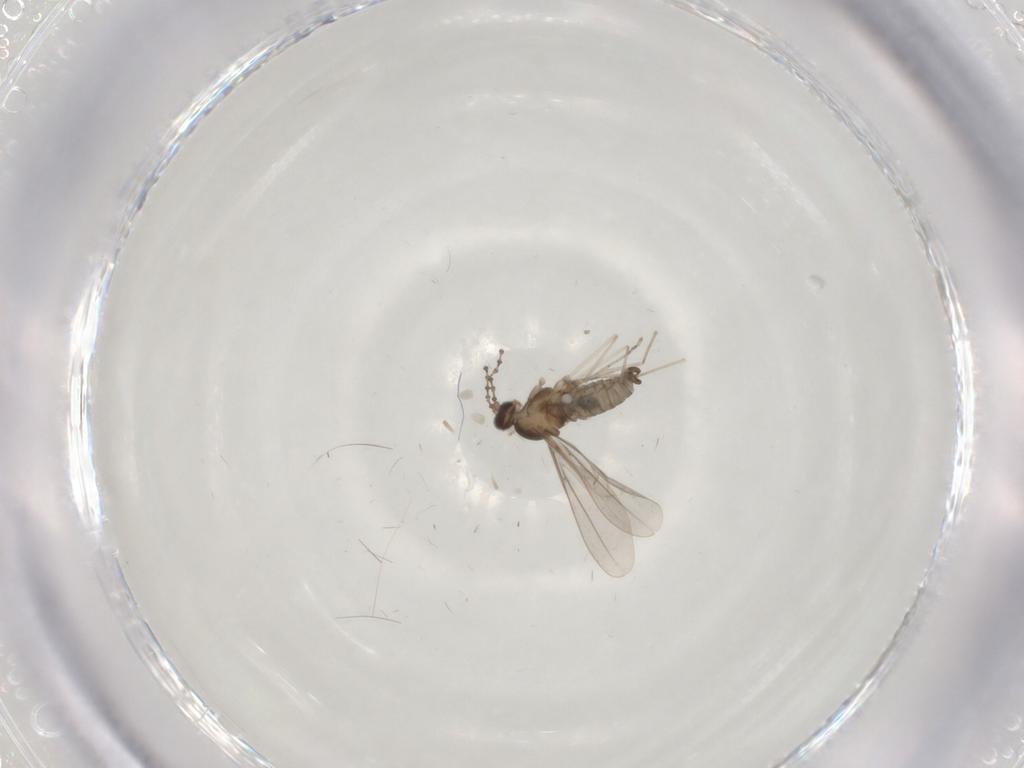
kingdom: Animalia
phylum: Arthropoda
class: Insecta
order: Diptera
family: Cecidomyiidae
